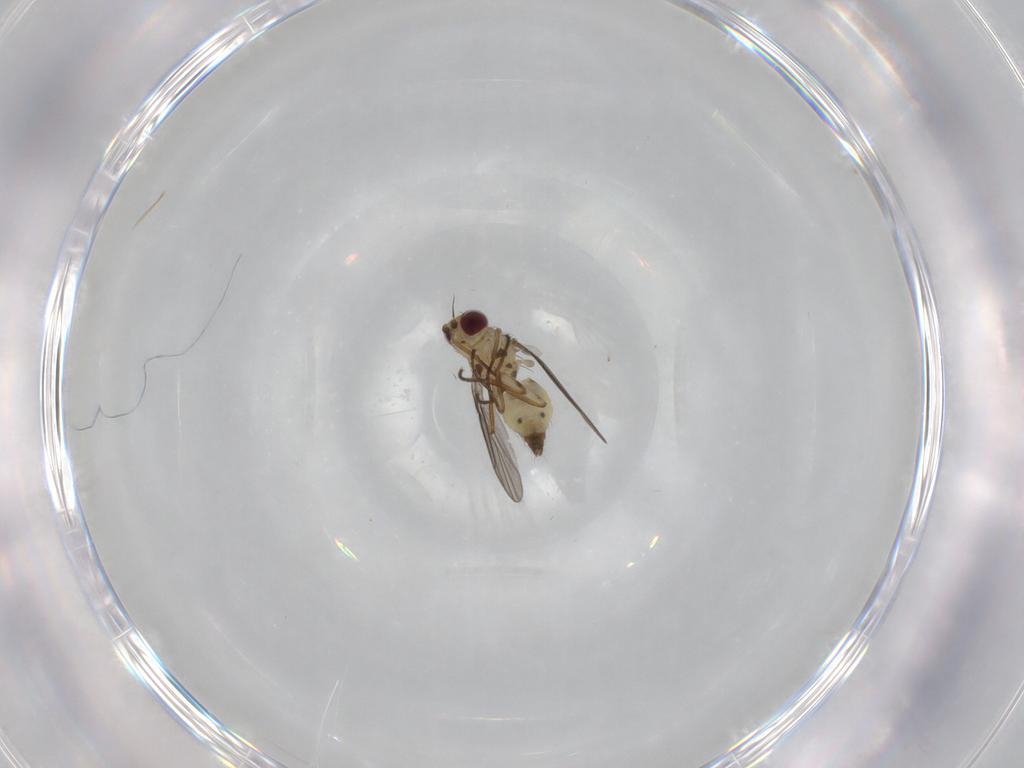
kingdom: Animalia
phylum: Arthropoda
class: Insecta
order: Diptera
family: Agromyzidae
